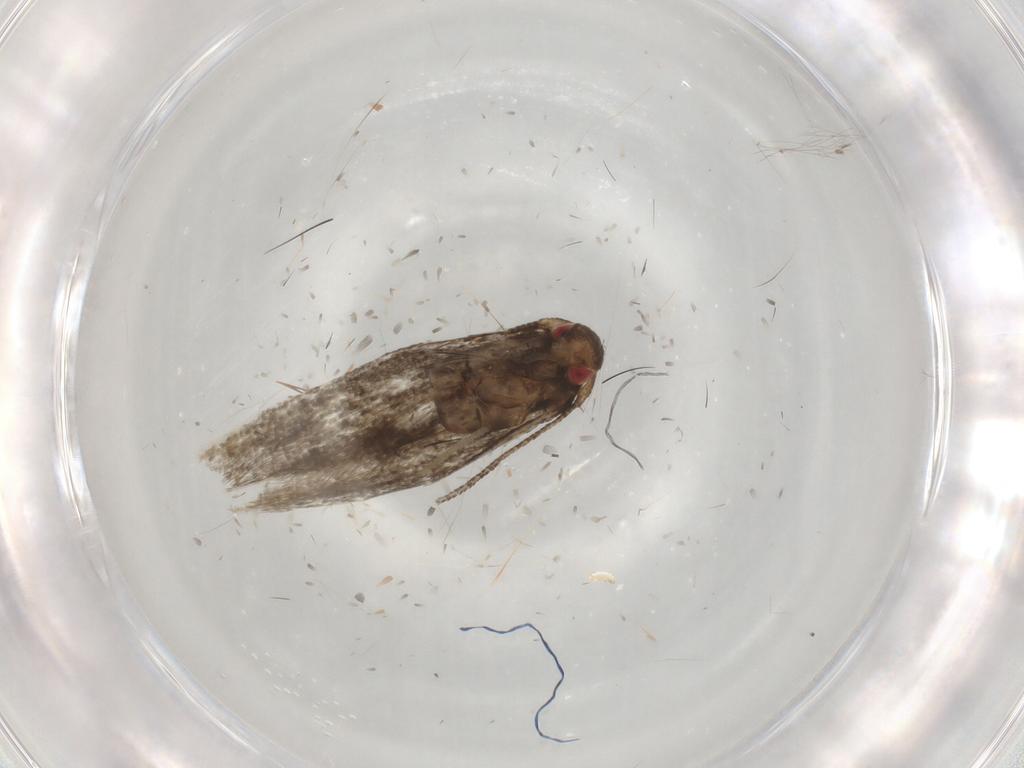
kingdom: Animalia
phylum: Arthropoda
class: Insecta
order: Lepidoptera
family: Momphidae
